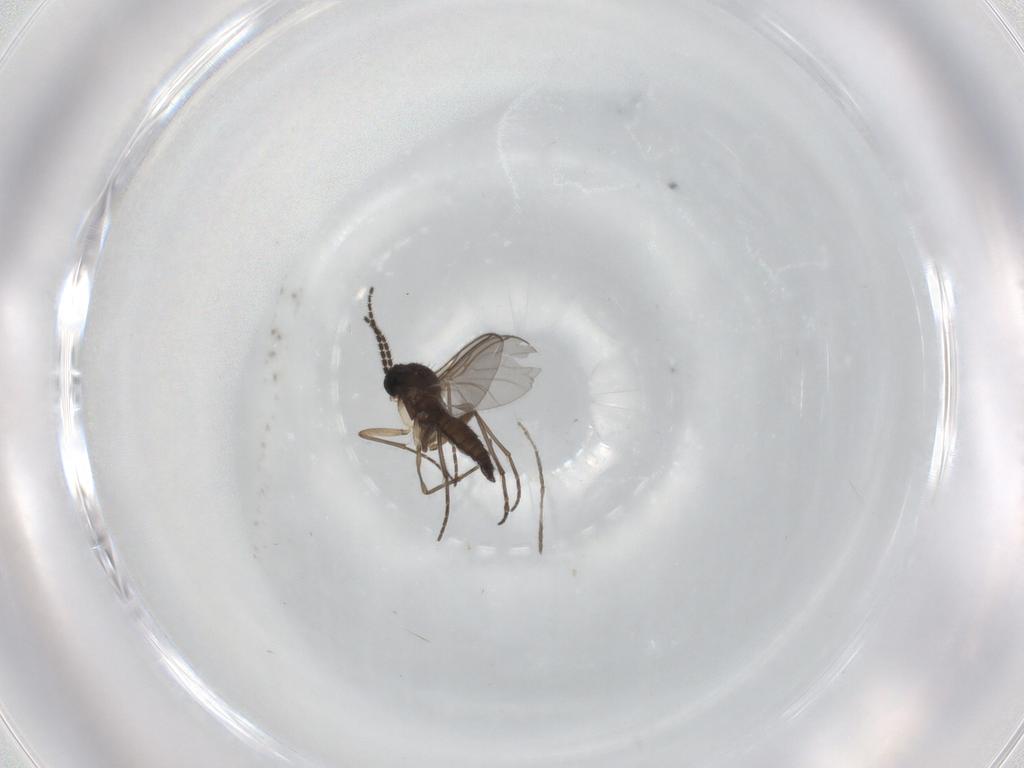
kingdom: Animalia
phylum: Arthropoda
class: Insecta
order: Diptera
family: Sciaridae
